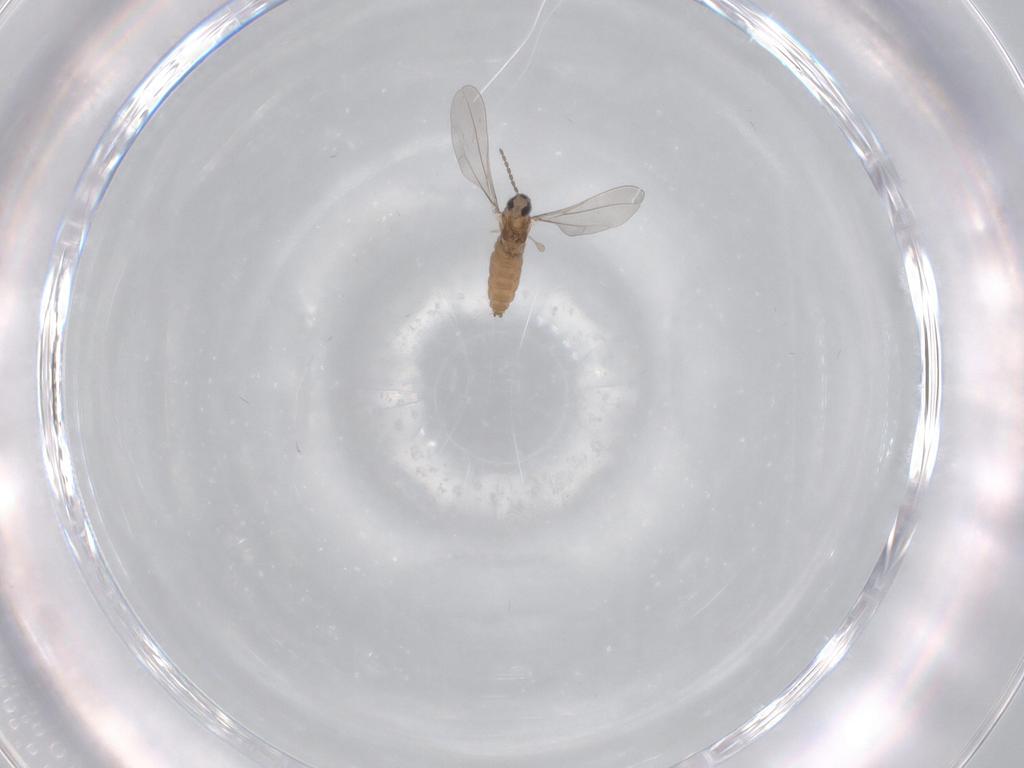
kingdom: Animalia
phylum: Arthropoda
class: Insecta
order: Diptera
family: Cecidomyiidae
